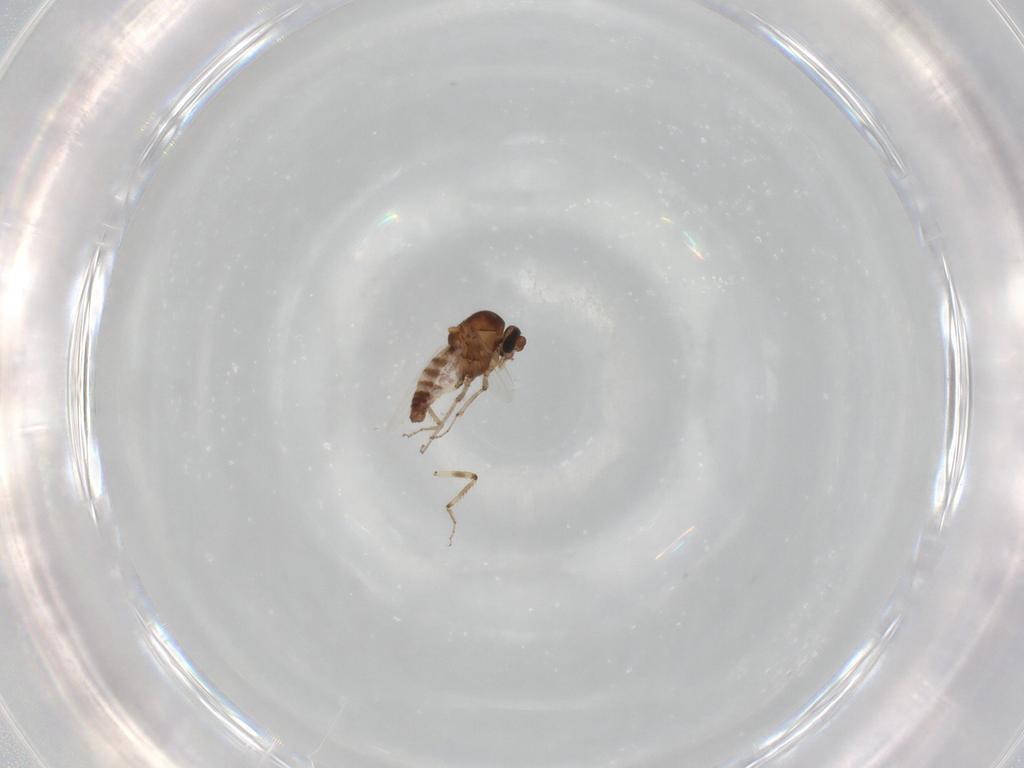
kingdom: Animalia
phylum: Arthropoda
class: Insecta
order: Diptera
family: Ceratopogonidae
